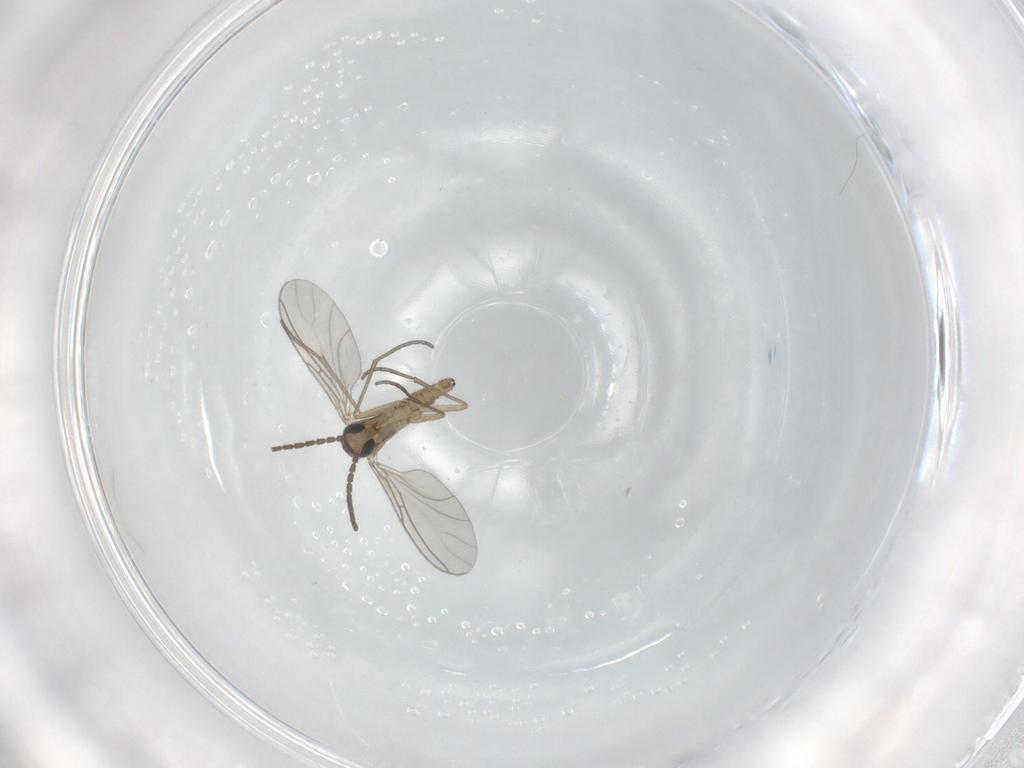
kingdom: Animalia
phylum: Arthropoda
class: Insecta
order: Diptera
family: Sciaridae
